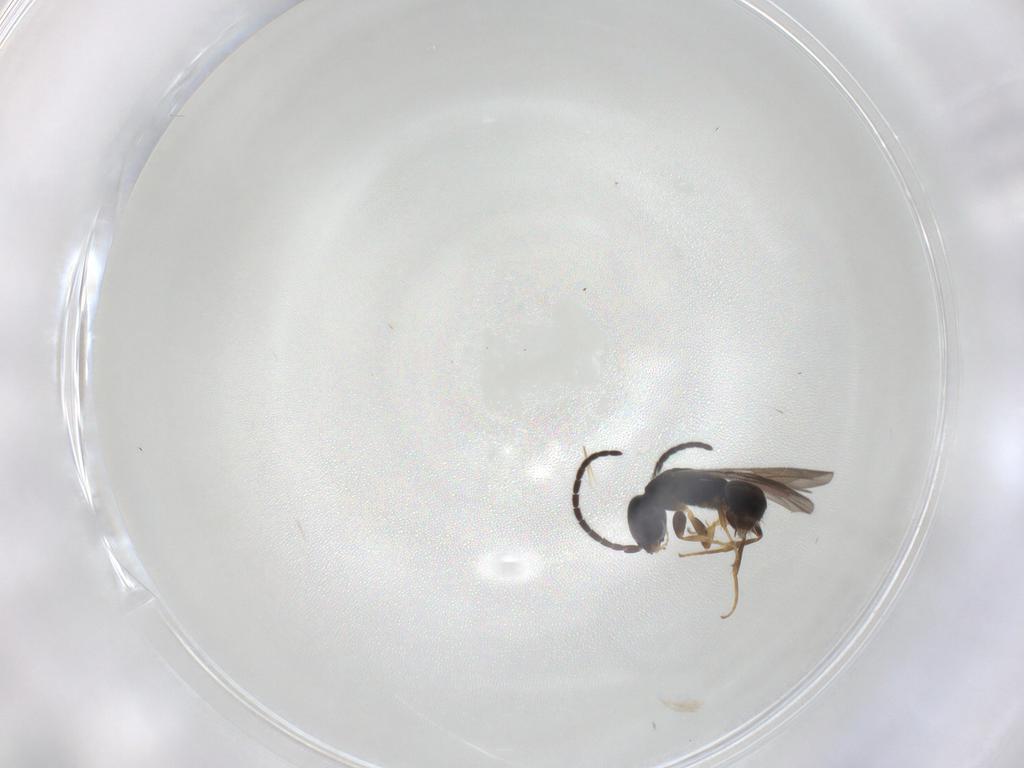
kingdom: Animalia
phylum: Arthropoda
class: Insecta
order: Hymenoptera
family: Bethylidae
